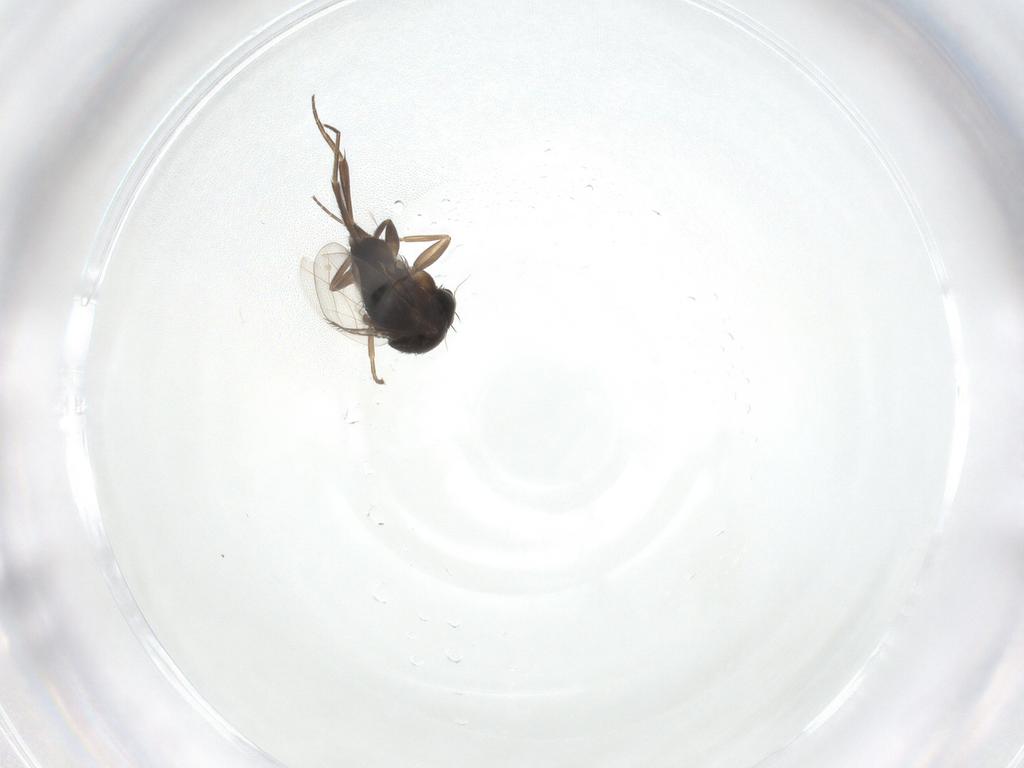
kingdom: Animalia
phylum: Arthropoda
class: Insecta
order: Diptera
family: Phoridae
